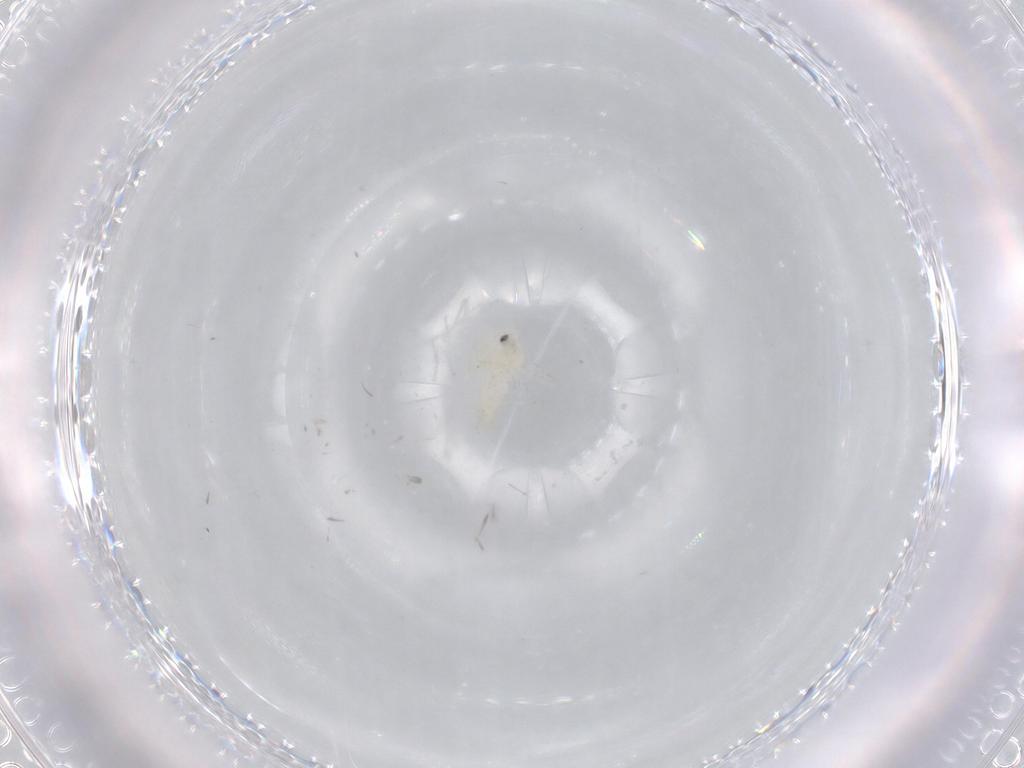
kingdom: Animalia
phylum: Arthropoda
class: Insecta
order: Hemiptera
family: Aleyrodidae
